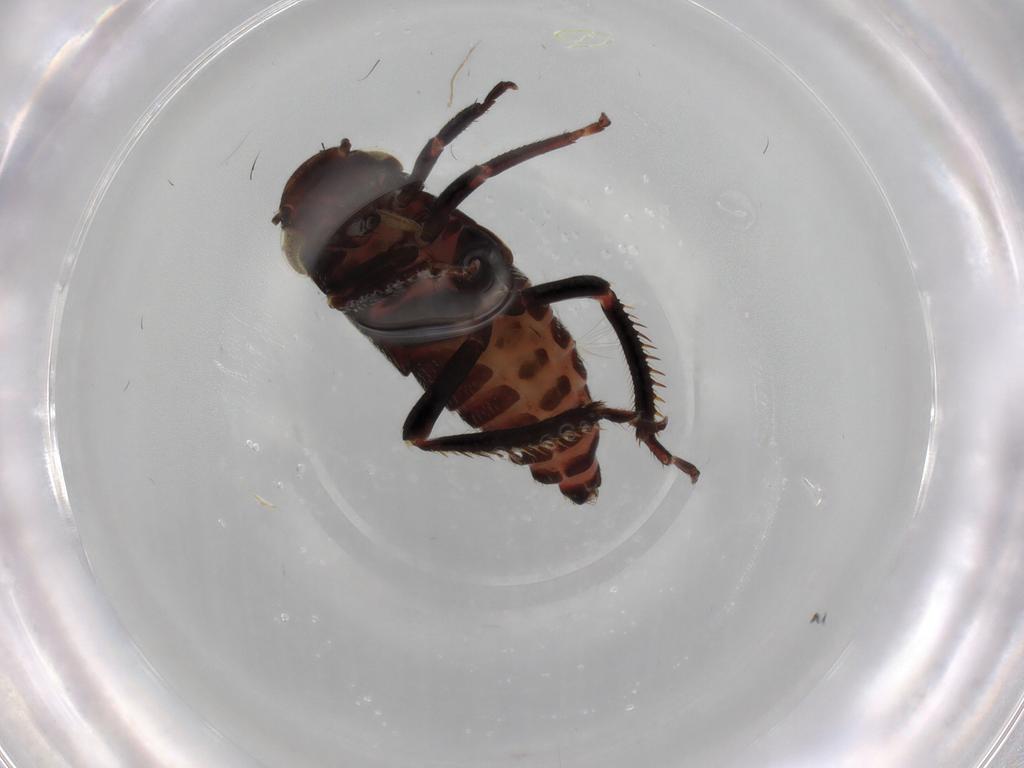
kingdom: Animalia
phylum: Arthropoda
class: Insecta
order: Hemiptera
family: Cicadellidae
